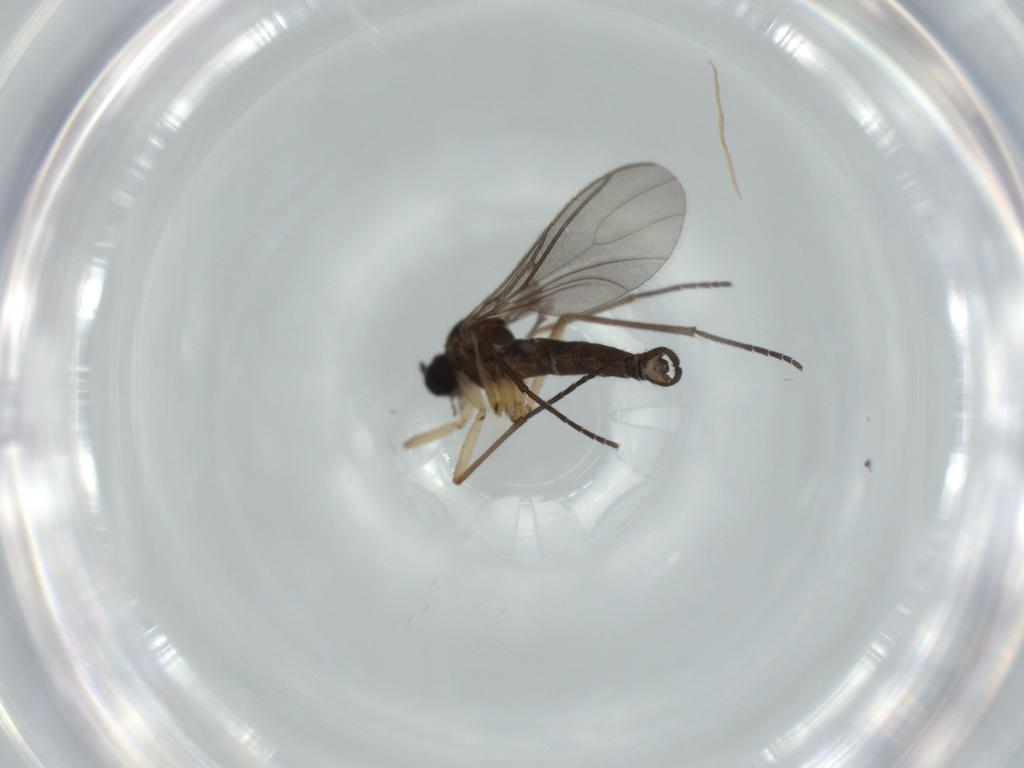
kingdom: Animalia
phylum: Arthropoda
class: Insecta
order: Diptera
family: Sciaridae
